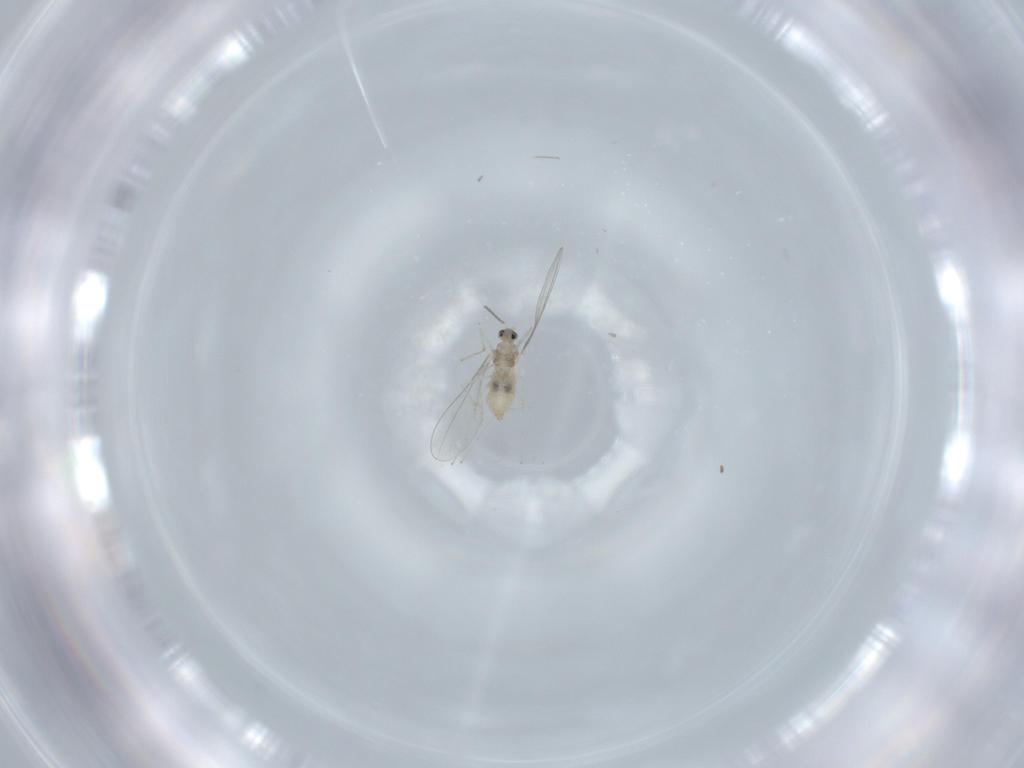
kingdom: Animalia
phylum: Arthropoda
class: Insecta
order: Diptera
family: Cecidomyiidae
